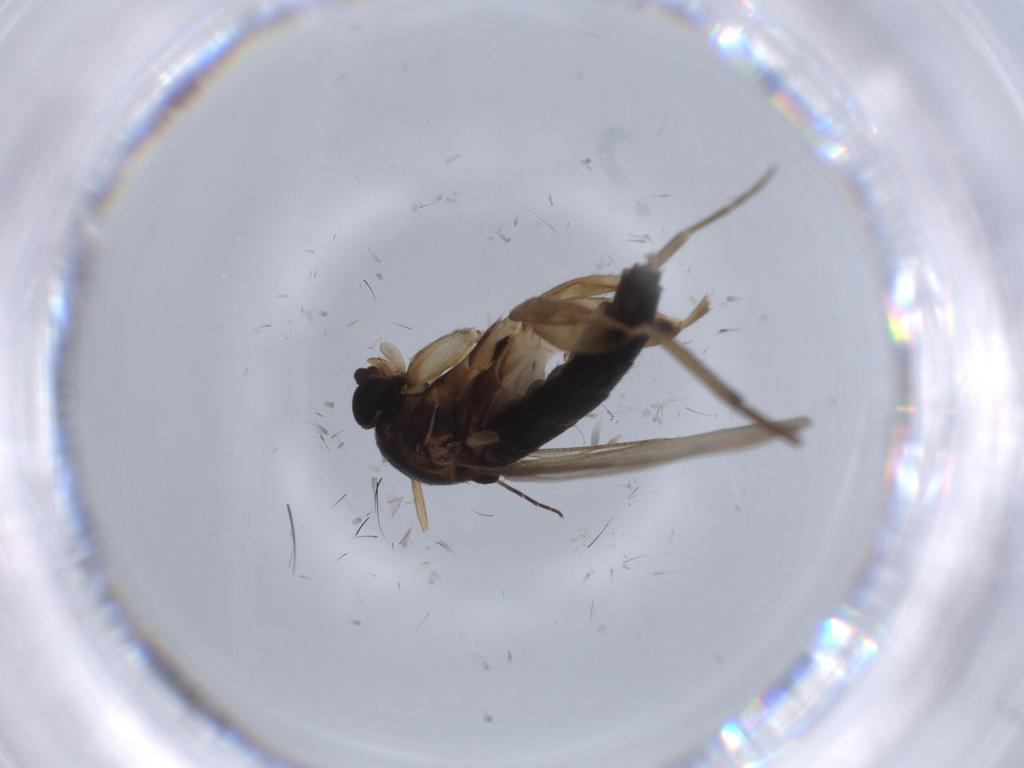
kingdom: Animalia
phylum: Arthropoda
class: Insecta
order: Diptera
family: Phoridae
